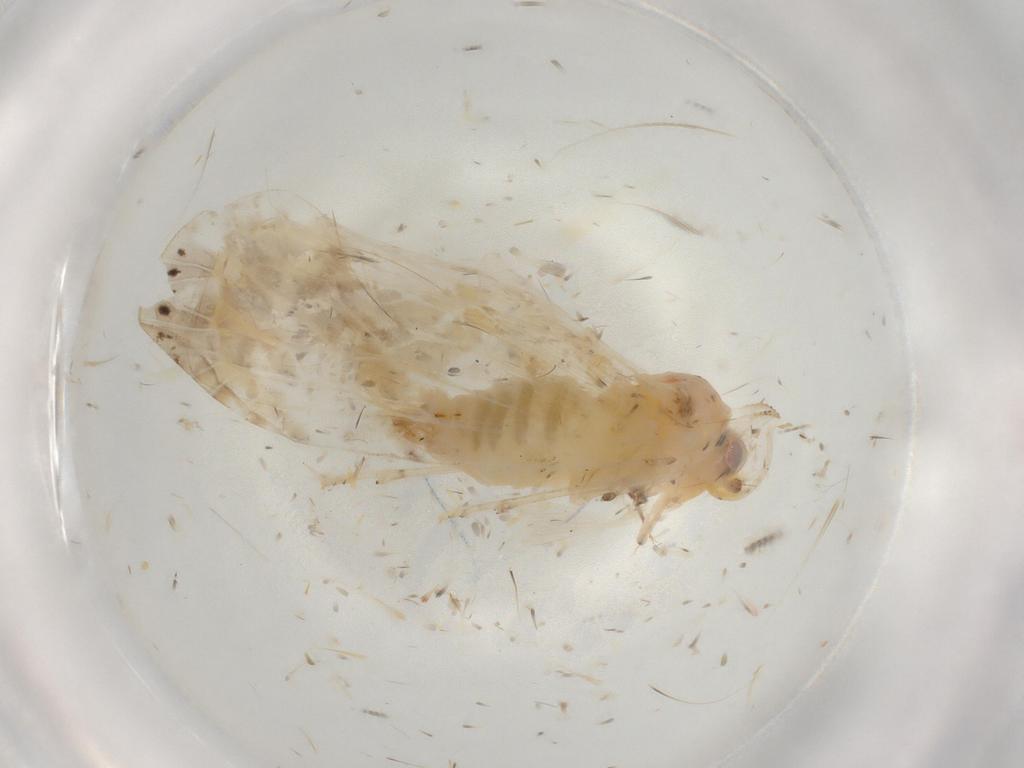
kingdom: Animalia
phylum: Arthropoda
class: Insecta
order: Hemiptera
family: Derbidae
